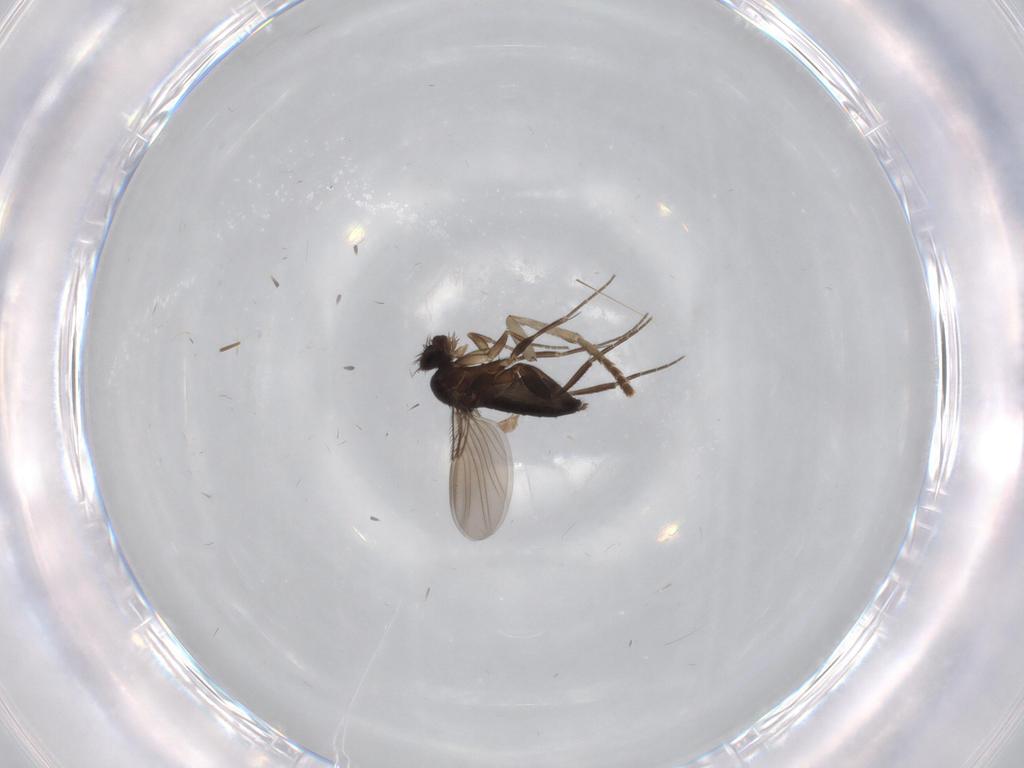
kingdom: Animalia
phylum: Arthropoda
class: Insecta
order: Diptera
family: Phoridae
